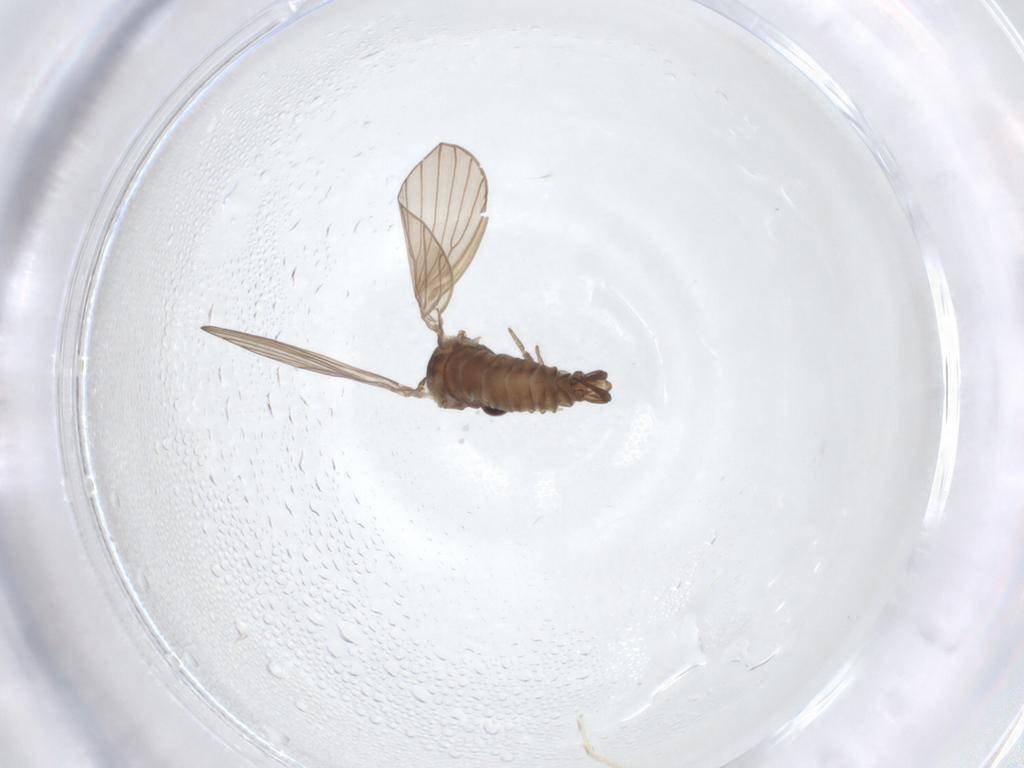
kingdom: Animalia
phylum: Arthropoda
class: Insecta
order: Diptera
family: Psychodidae
